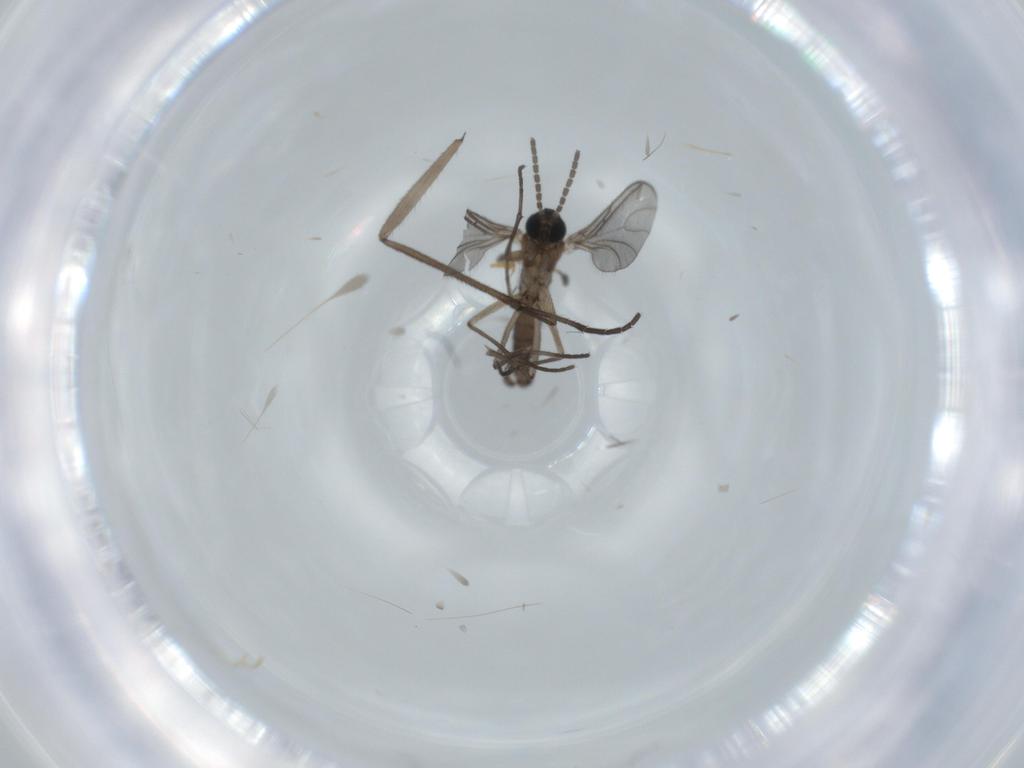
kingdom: Animalia
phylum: Arthropoda
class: Insecta
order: Diptera
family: Sciaridae
